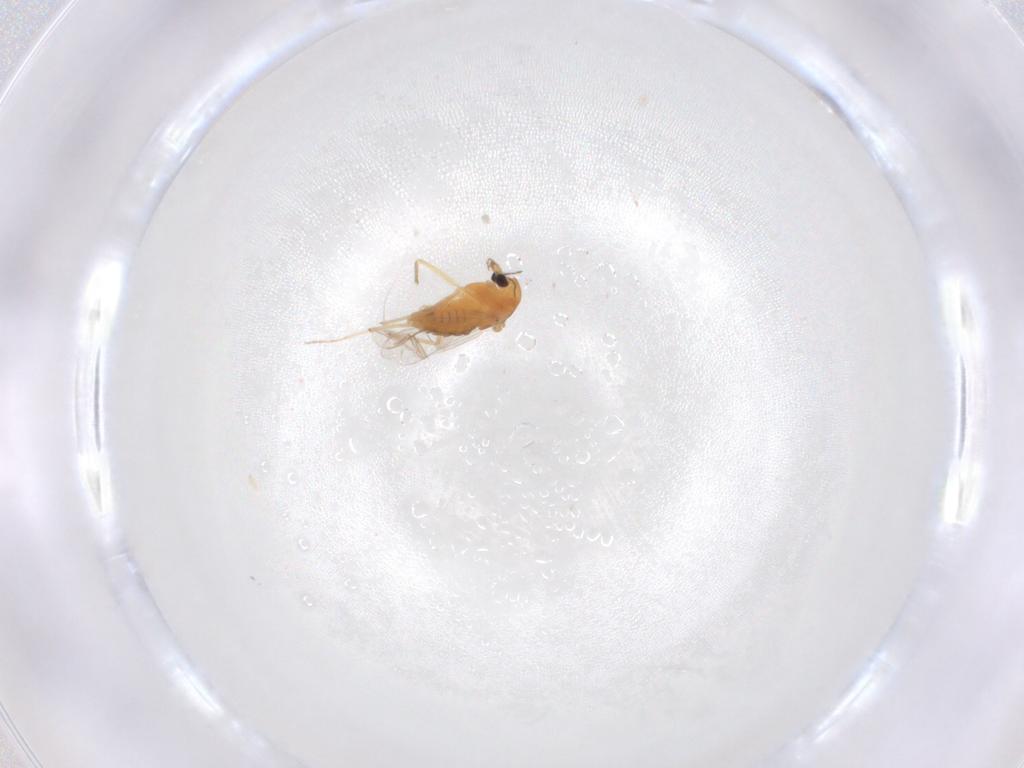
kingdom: Animalia
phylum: Arthropoda
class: Insecta
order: Diptera
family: Chironomidae
